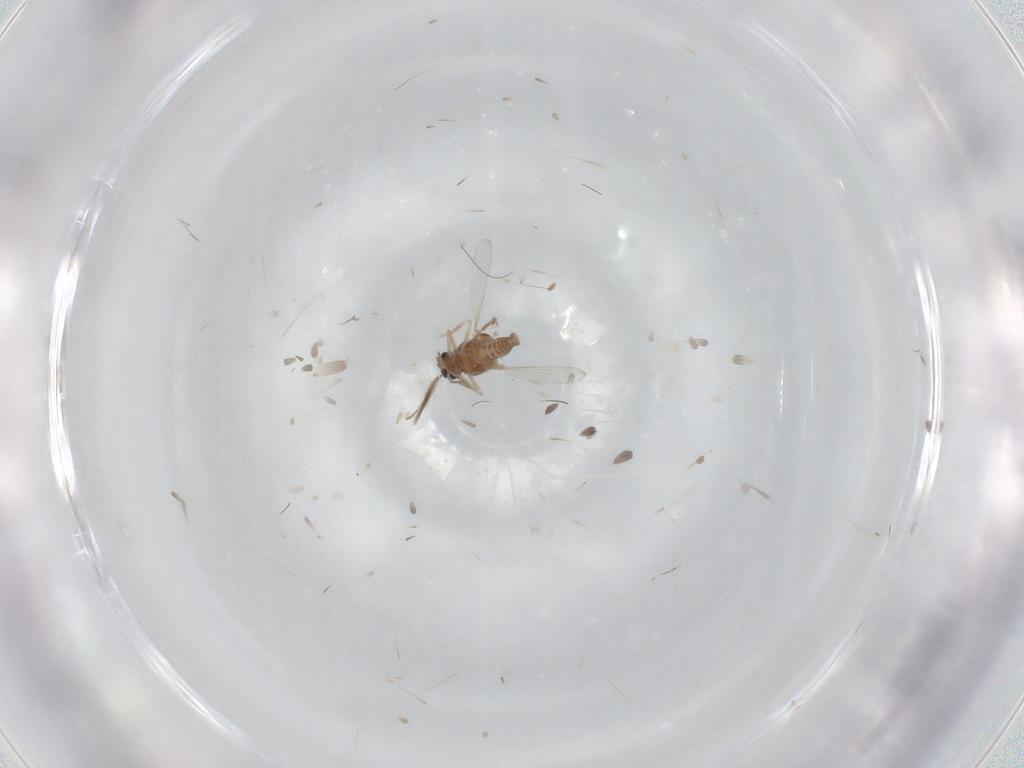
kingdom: Animalia
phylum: Arthropoda
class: Insecta
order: Diptera
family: Ceratopogonidae
